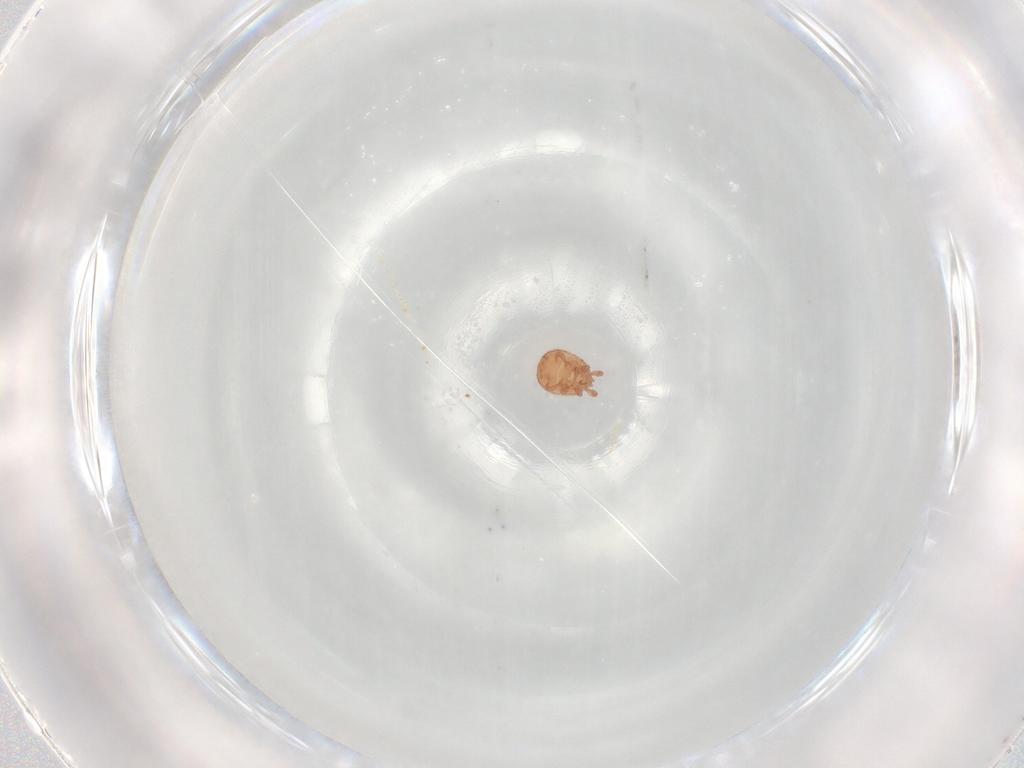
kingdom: Animalia
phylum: Arthropoda
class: Arachnida
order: Mesostigmata
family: Zerconidae
